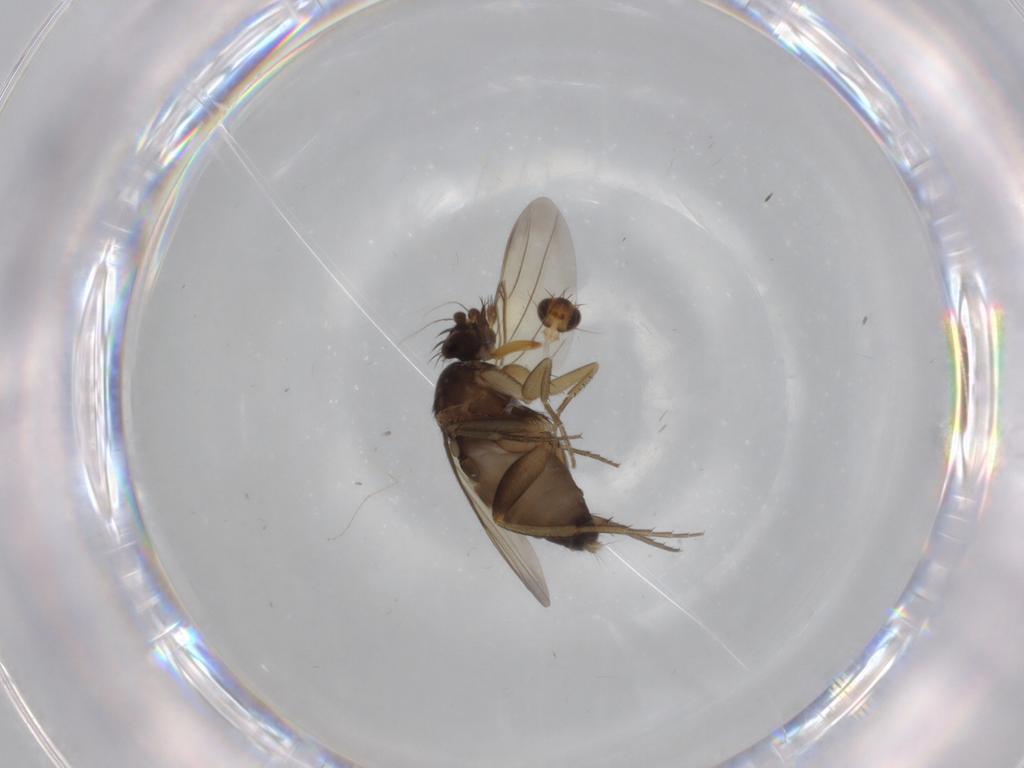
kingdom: Animalia
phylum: Arthropoda
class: Insecta
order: Diptera
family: Phoridae
